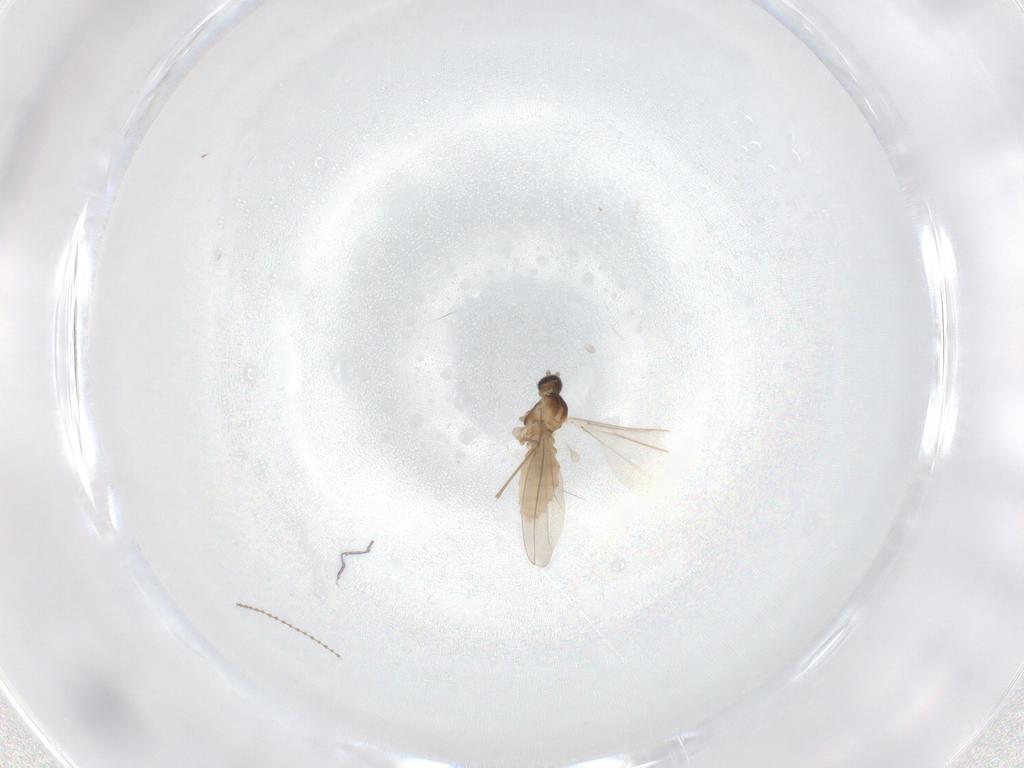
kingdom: Animalia
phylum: Arthropoda
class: Insecta
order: Diptera
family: Cecidomyiidae
